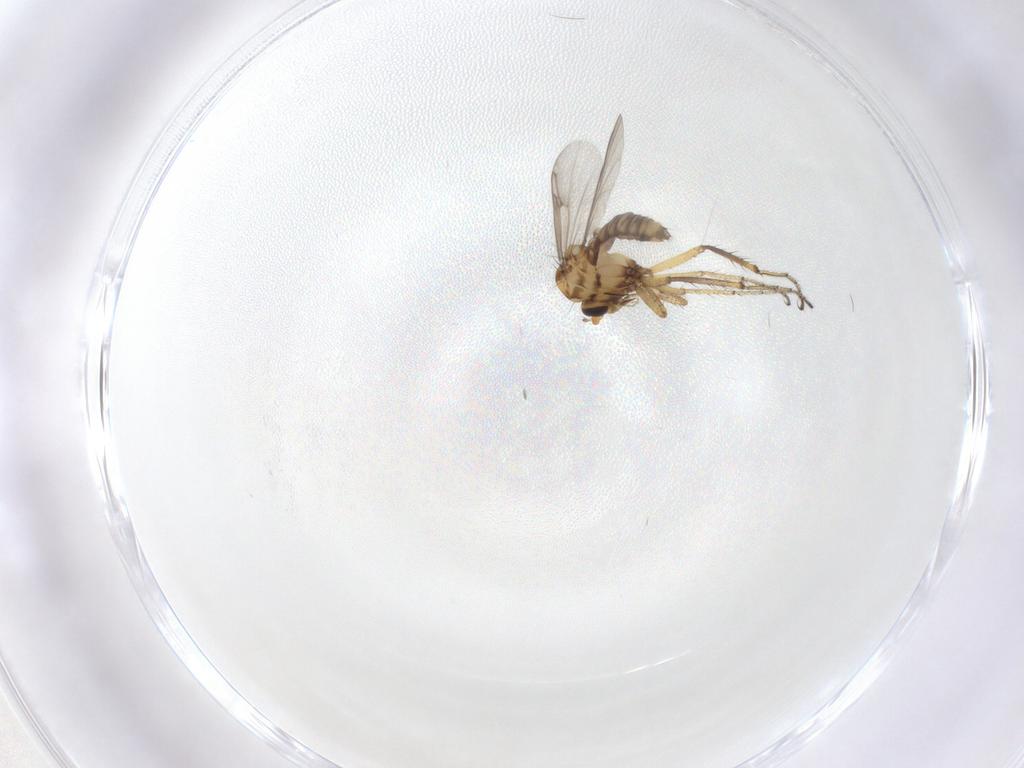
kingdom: Animalia
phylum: Arthropoda
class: Insecta
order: Diptera
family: Ceratopogonidae
